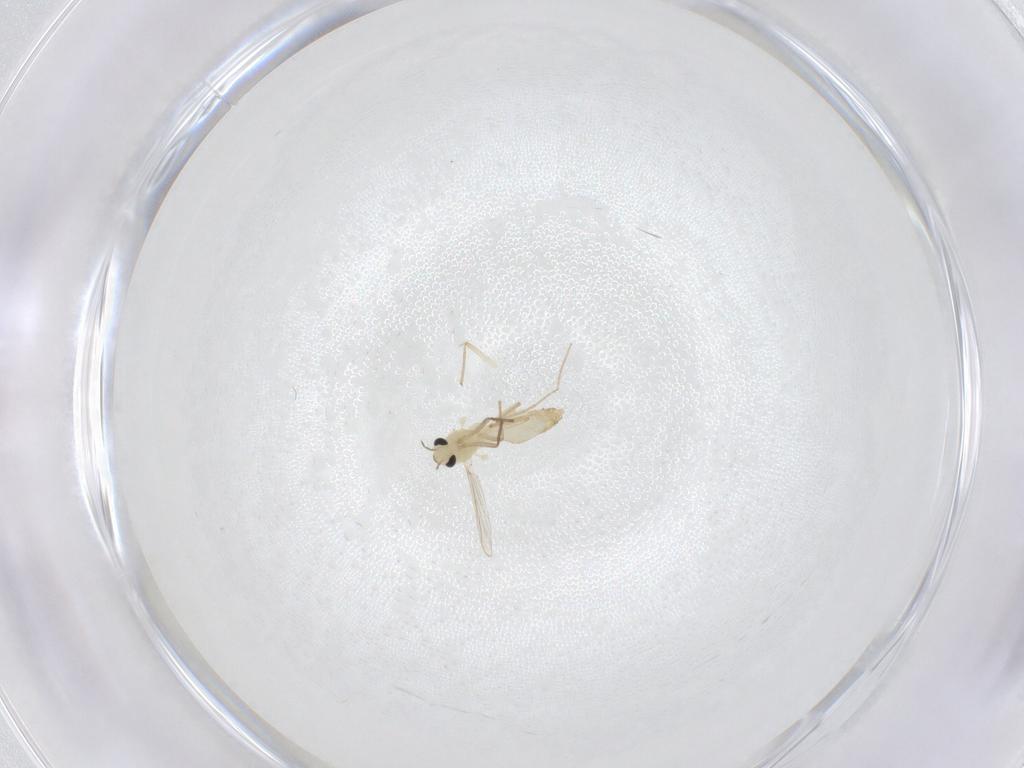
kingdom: Animalia
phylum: Arthropoda
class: Insecta
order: Diptera
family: Chironomidae
